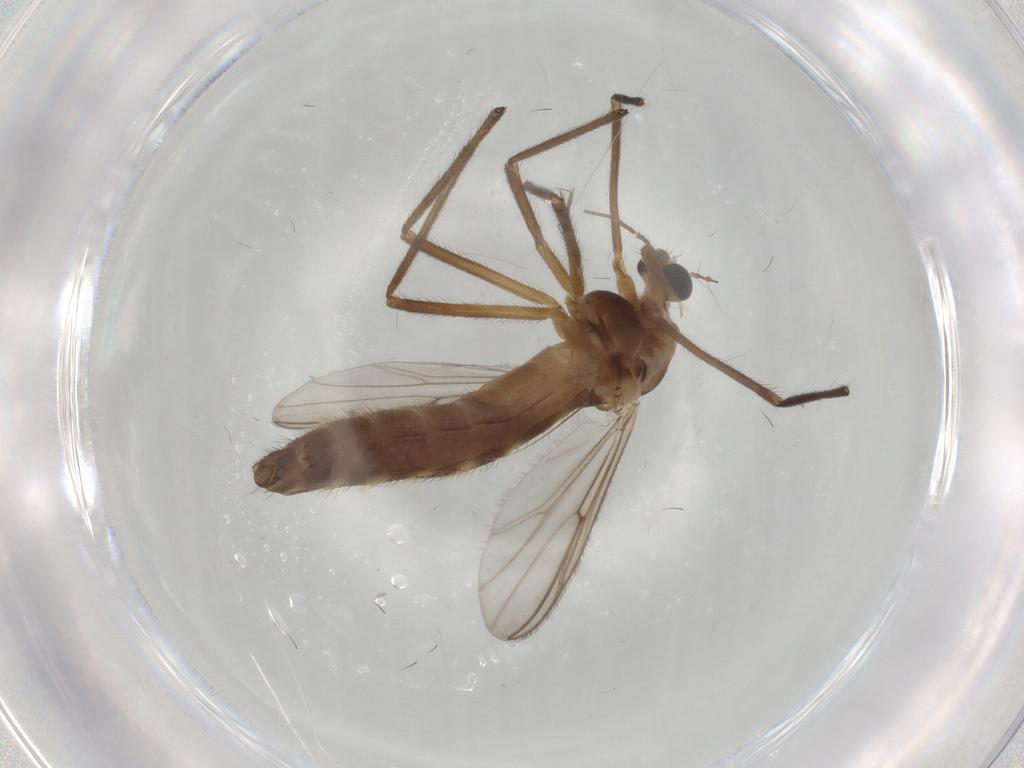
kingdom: Animalia
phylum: Arthropoda
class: Insecta
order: Diptera
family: Chironomidae
